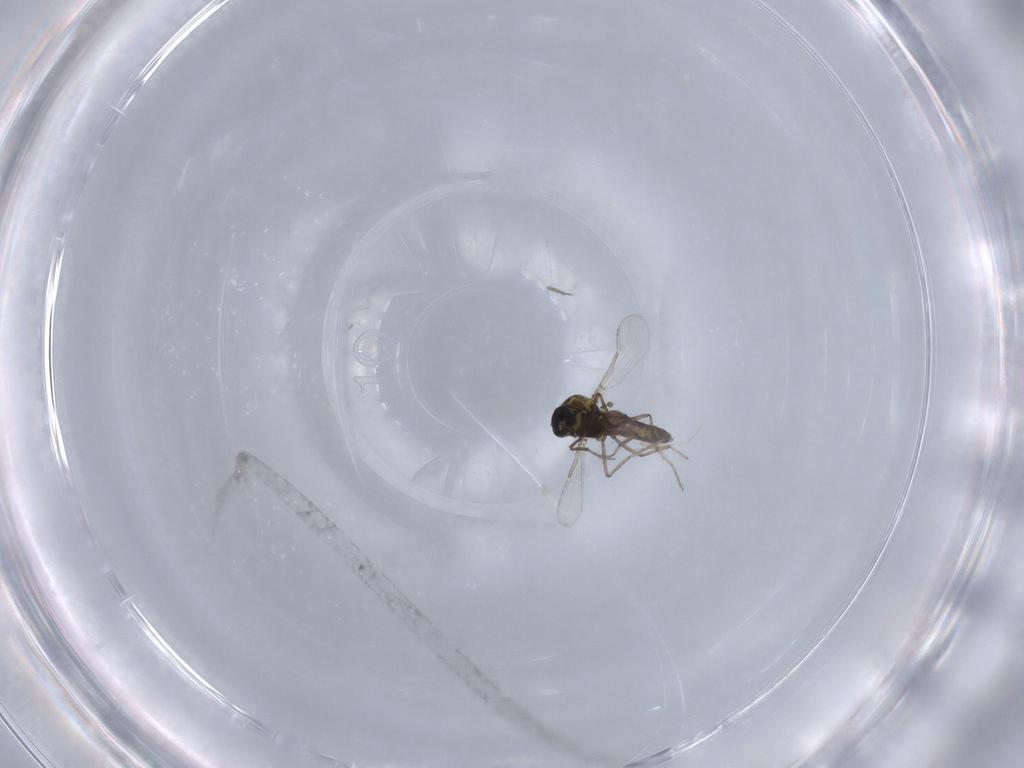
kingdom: Animalia
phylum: Arthropoda
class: Insecta
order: Diptera
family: Ceratopogonidae
